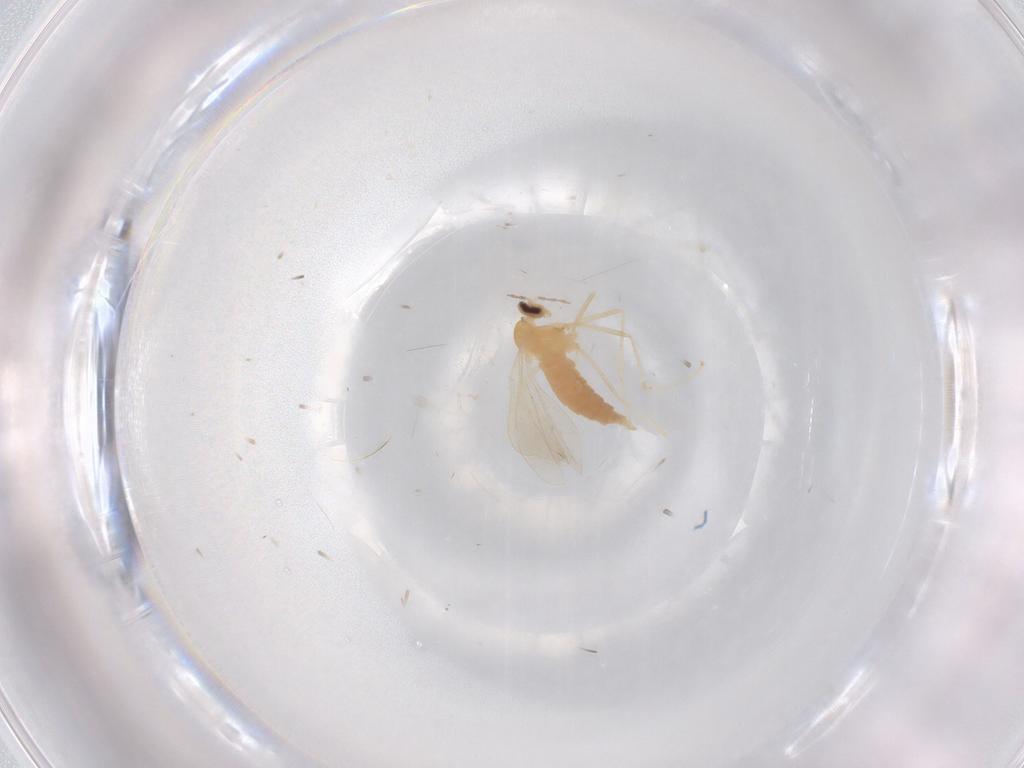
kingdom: Animalia
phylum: Arthropoda
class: Insecta
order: Diptera
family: Cecidomyiidae
